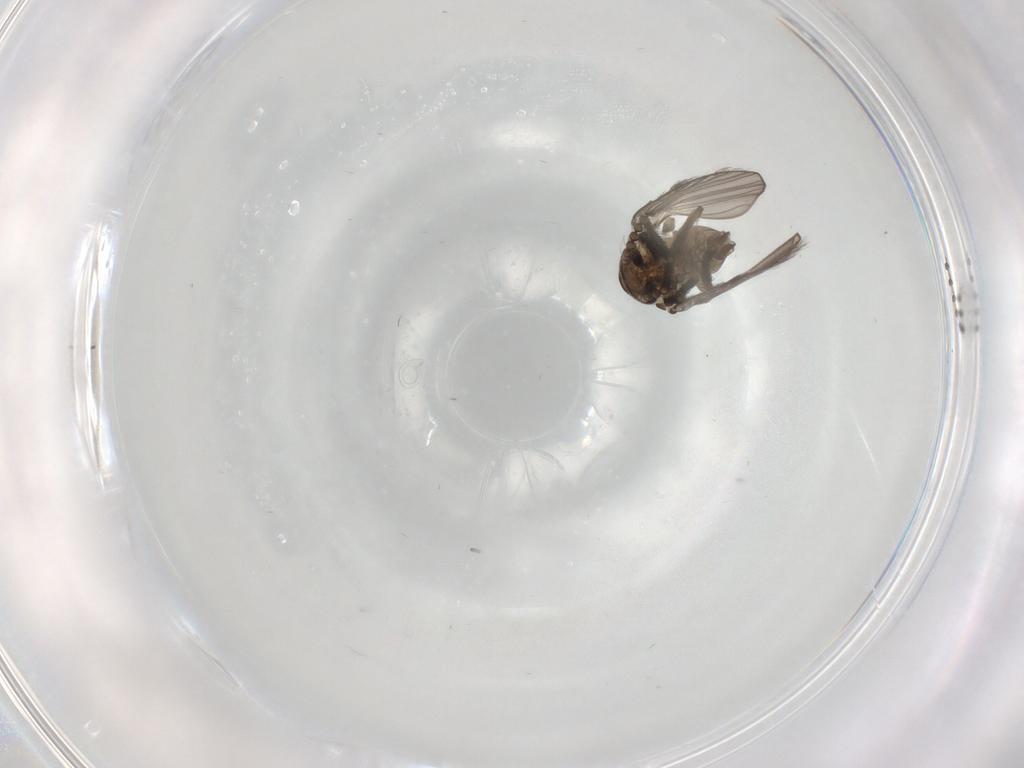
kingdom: Animalia
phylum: Arthropoda
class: Insecta
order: Diptera
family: Psychodidae
